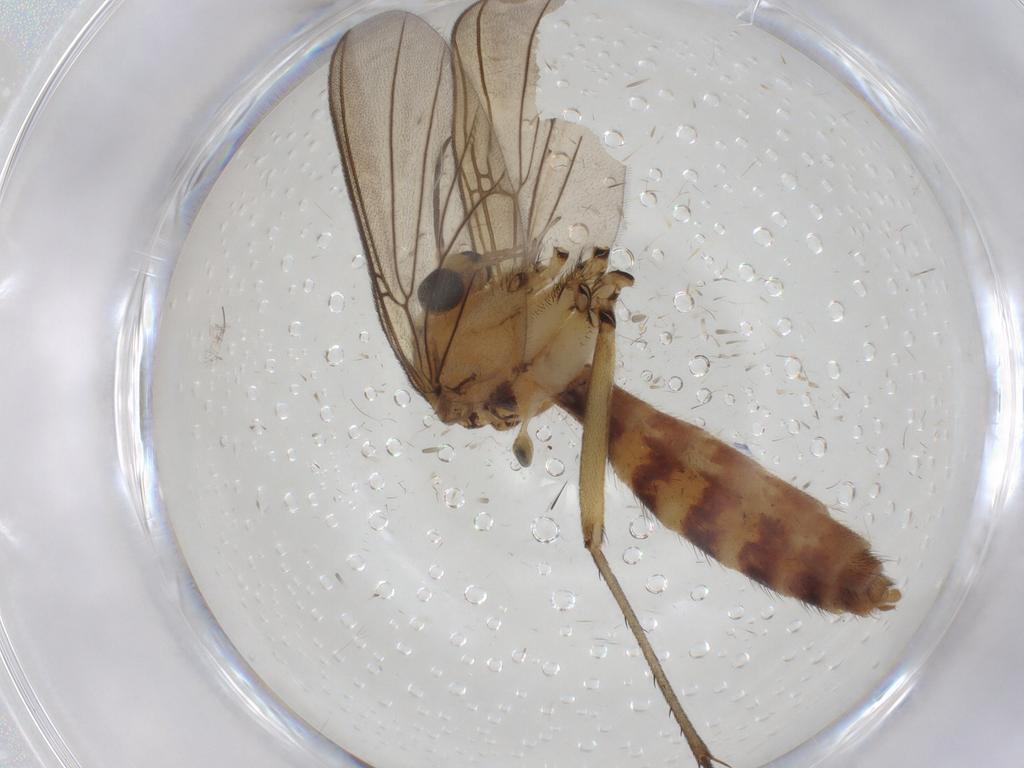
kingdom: Animalia
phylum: Arthropoda
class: Insecta
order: Diptera
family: Mycetophilidae
